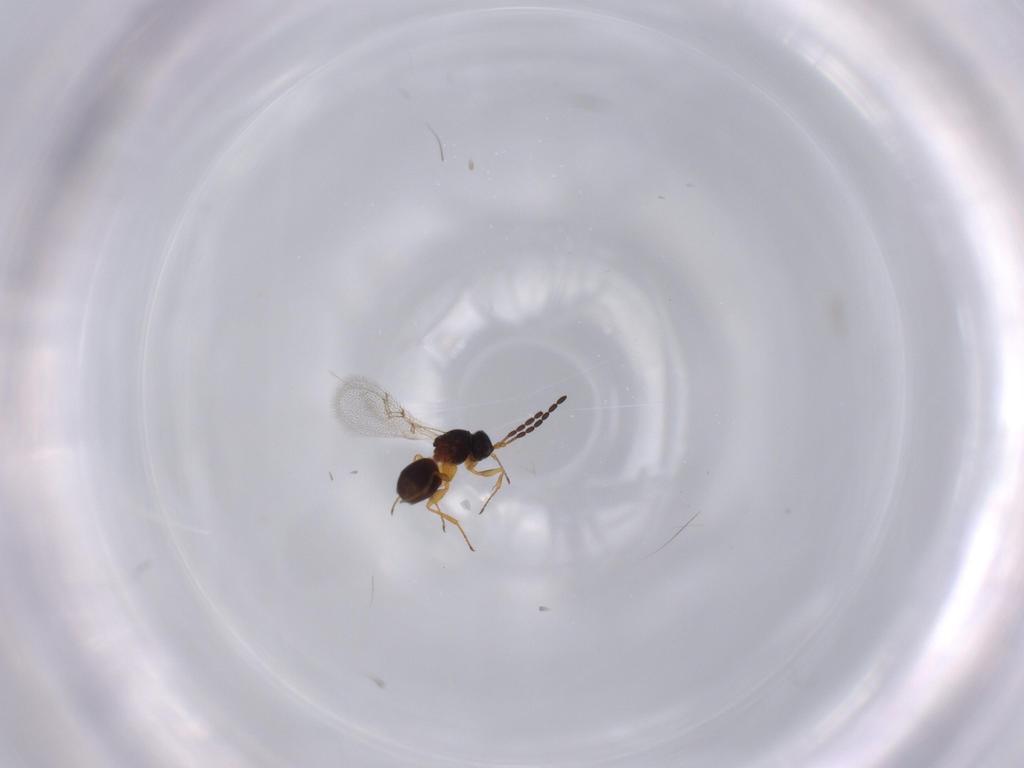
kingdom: Animalia
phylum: Arthropoda
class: Insecta
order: Hymenoptera
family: Figitidae
